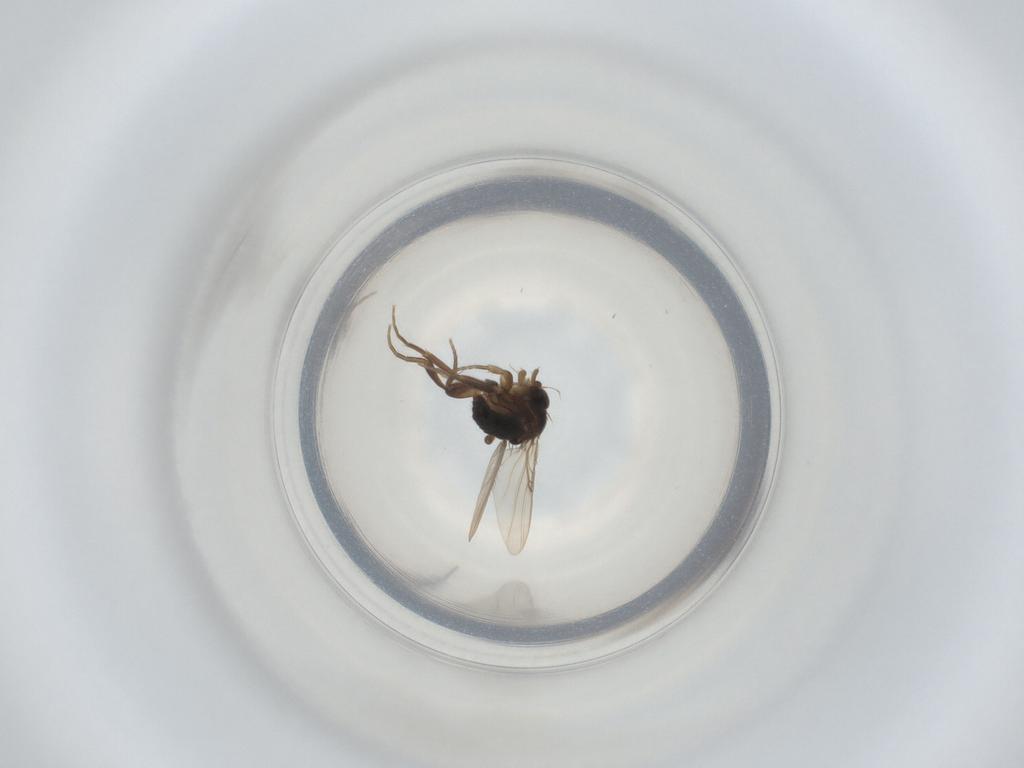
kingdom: Animalia
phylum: Arthropoda
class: Insecta
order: Diptera
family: Phoridae
